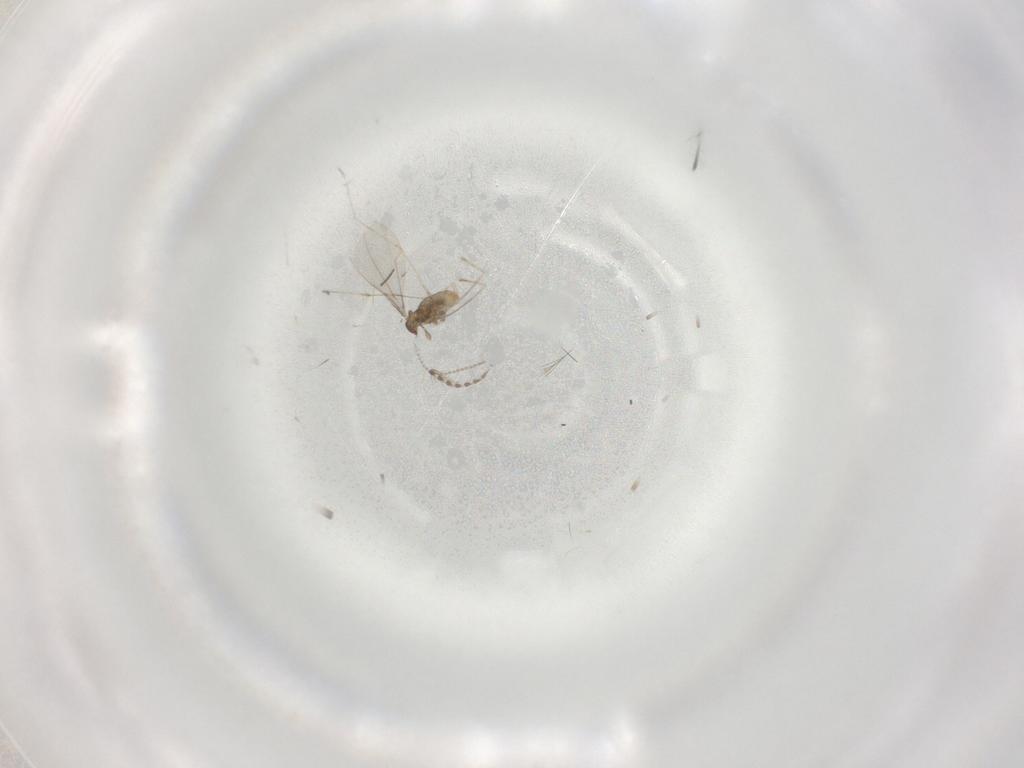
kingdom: Animalia
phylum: Arthropoda
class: Insecta
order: Diptera
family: Cecidomyiidae
